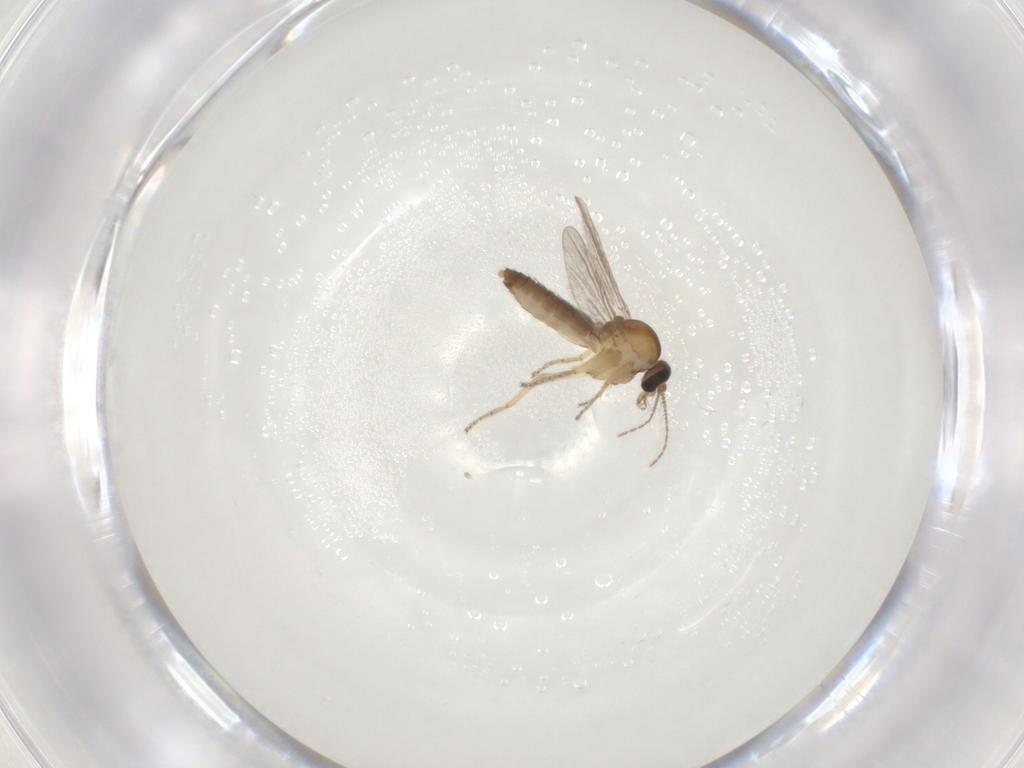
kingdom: Animalia
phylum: Arthropoda
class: Insecta
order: Diptera
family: Ceratopogonidae
